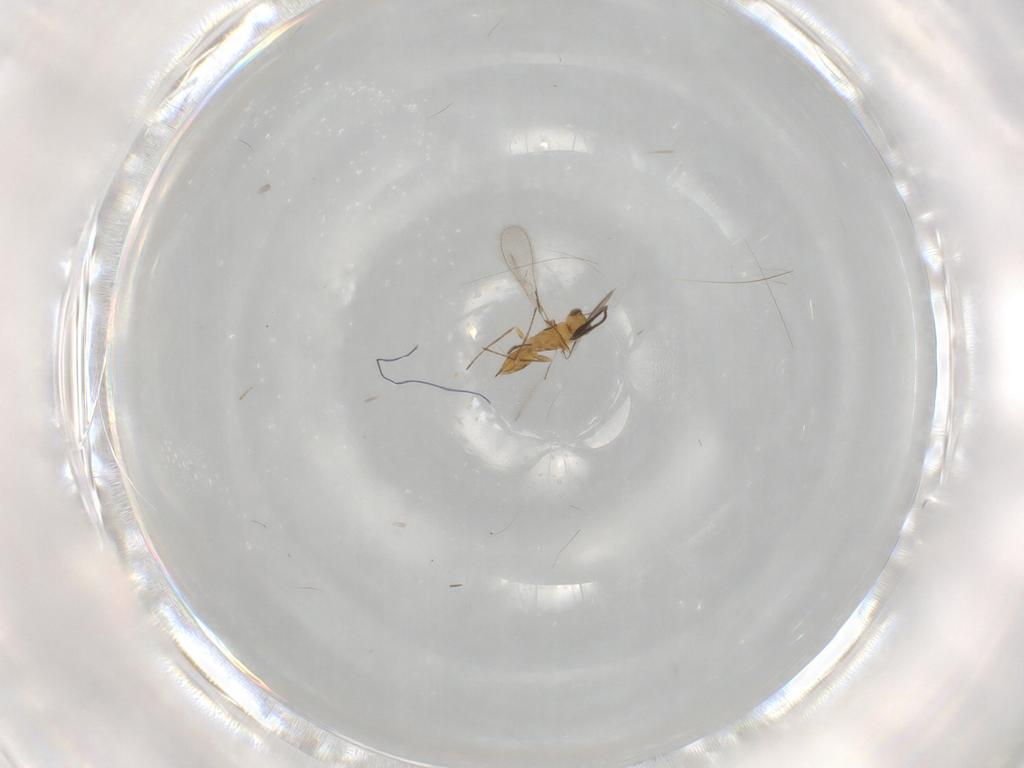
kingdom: Animalia
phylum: Arthropoda
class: Insecta
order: Hymenoptera
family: Mymaridae
